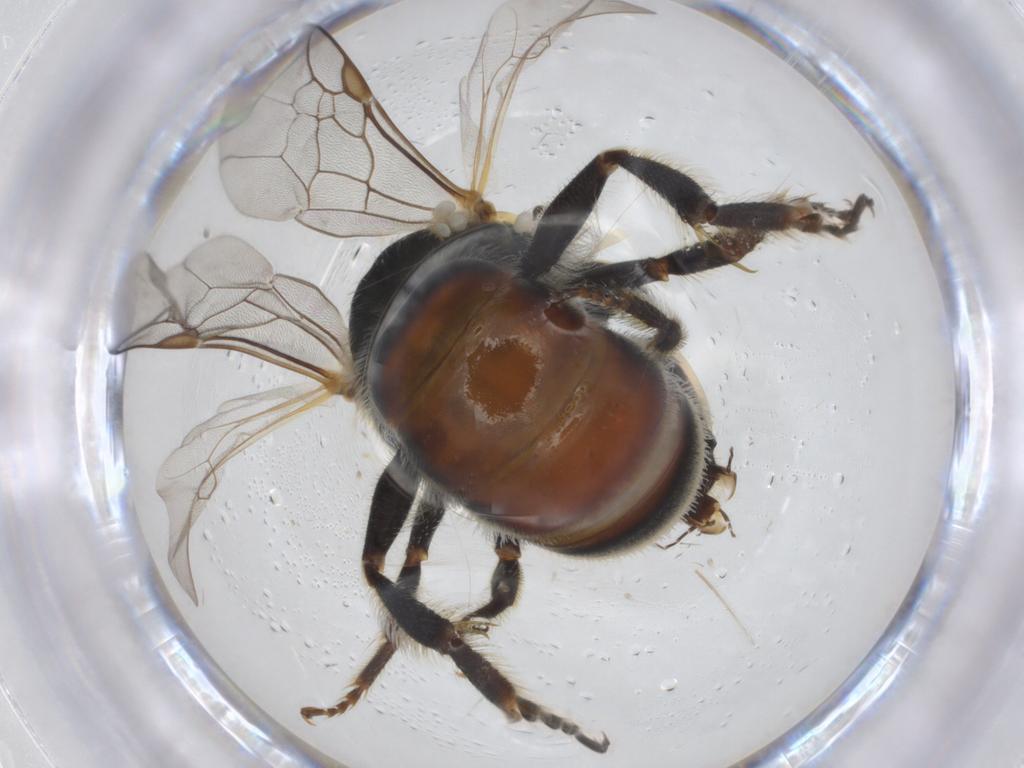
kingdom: Animalia
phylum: Arthropoda
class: Insecta
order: Hymenoptera
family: Halictidae
